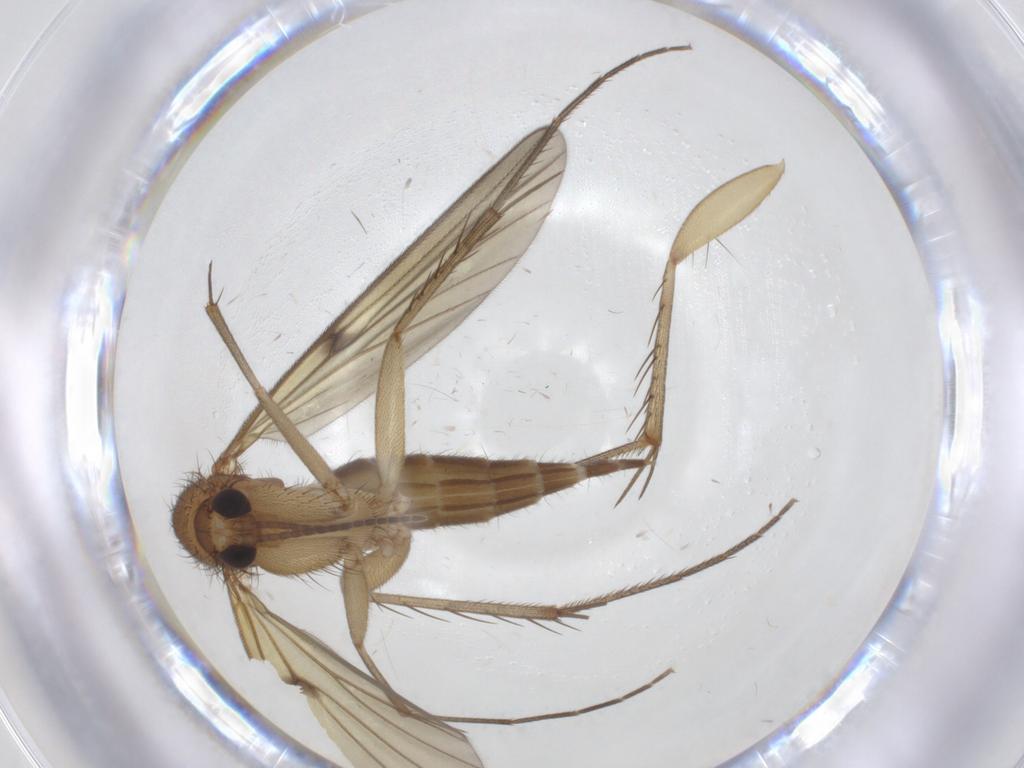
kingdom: Animalia
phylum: Arthropoda
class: Insecta
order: Diptera
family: Mycetophilidae
